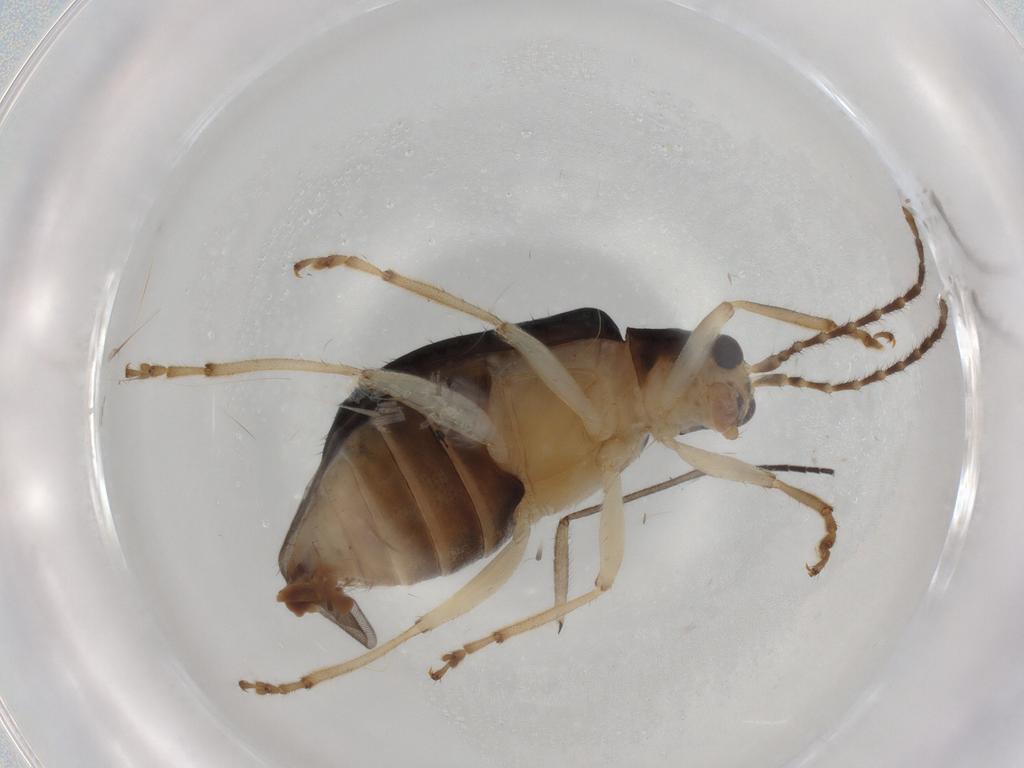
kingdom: Animalia
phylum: Arthropoda
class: Insecta
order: Coleoptera
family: Chrysomelidae
